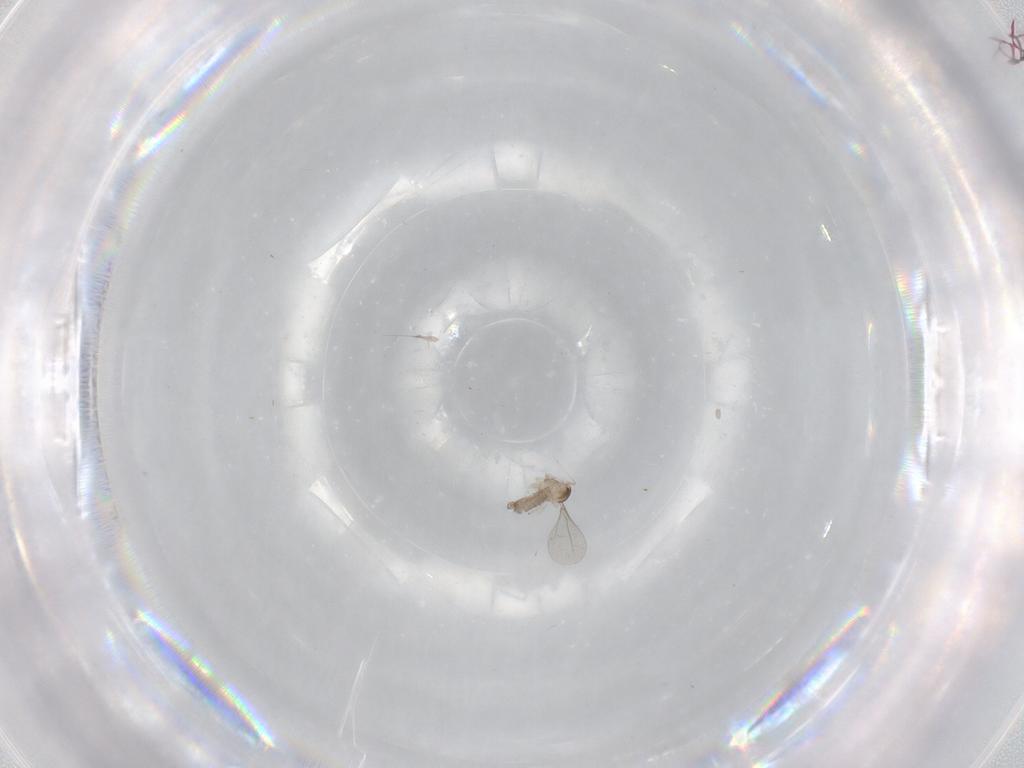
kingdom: Animalia
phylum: Arthropoda
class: Insecta
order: Diptera
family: Cecidomyiidae
